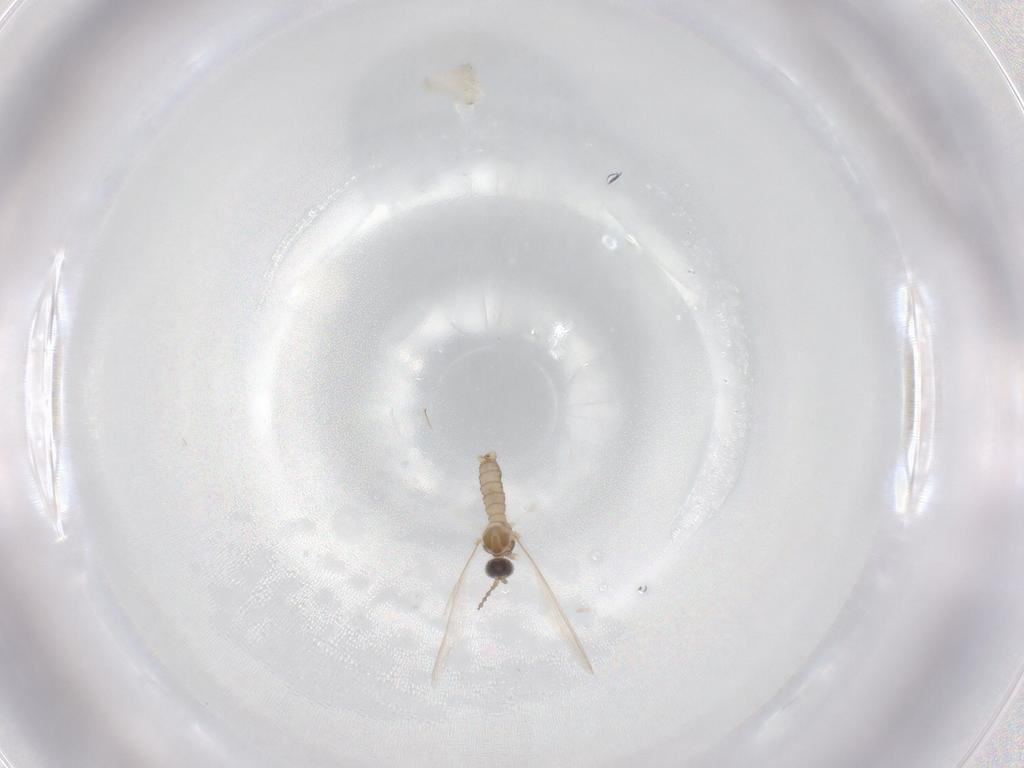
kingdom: Animalia
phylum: Arthropoda
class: Insecta
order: Diptera
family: Cecidomyiidae
